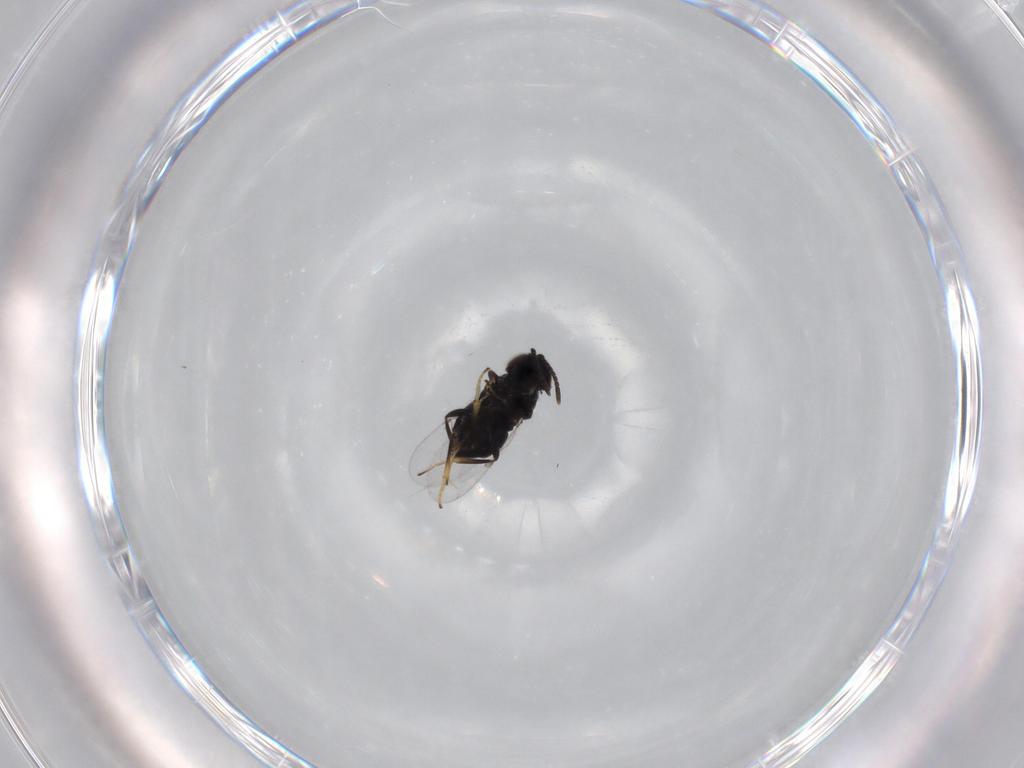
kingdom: Animalia
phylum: Arthropoda
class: Insecta
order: Hymenoptera
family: Encyrtidae
